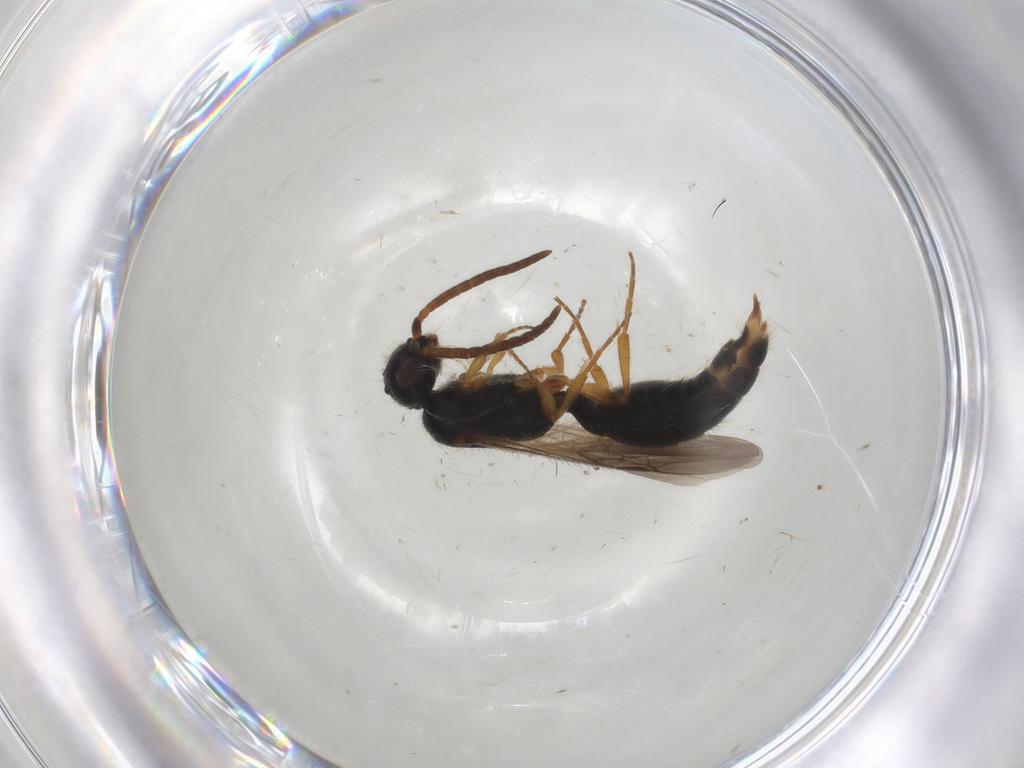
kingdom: Animalia
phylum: Arthropoda
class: Insecta
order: Hymenoptera
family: Mutillidae
